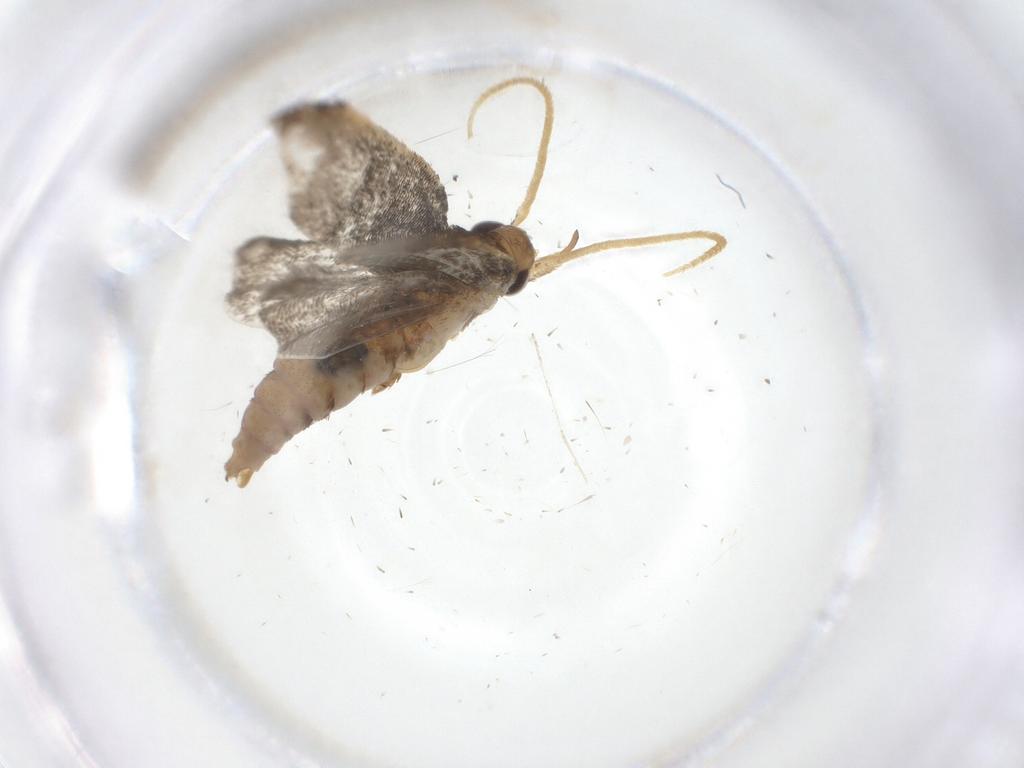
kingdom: Animalia
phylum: Arthropoda
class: Insecta
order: Lepidoptera
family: Lecithoceridae
